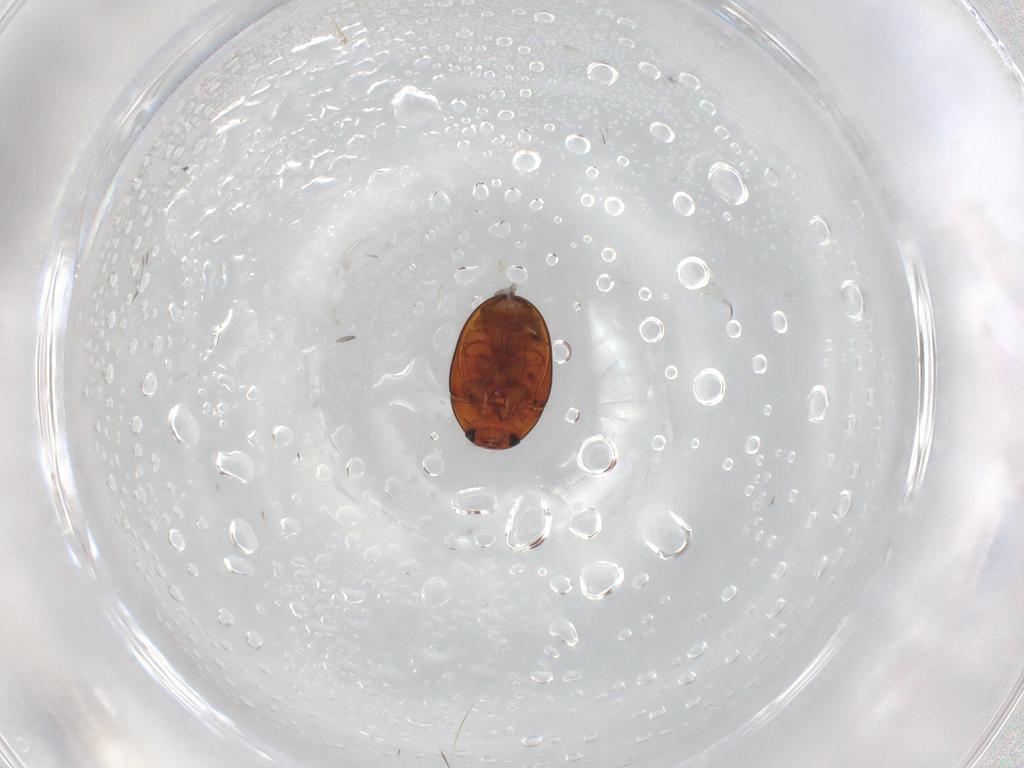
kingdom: Animalia
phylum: Arthropoda
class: Insecta
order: Coleoptera
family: Phalacridae
